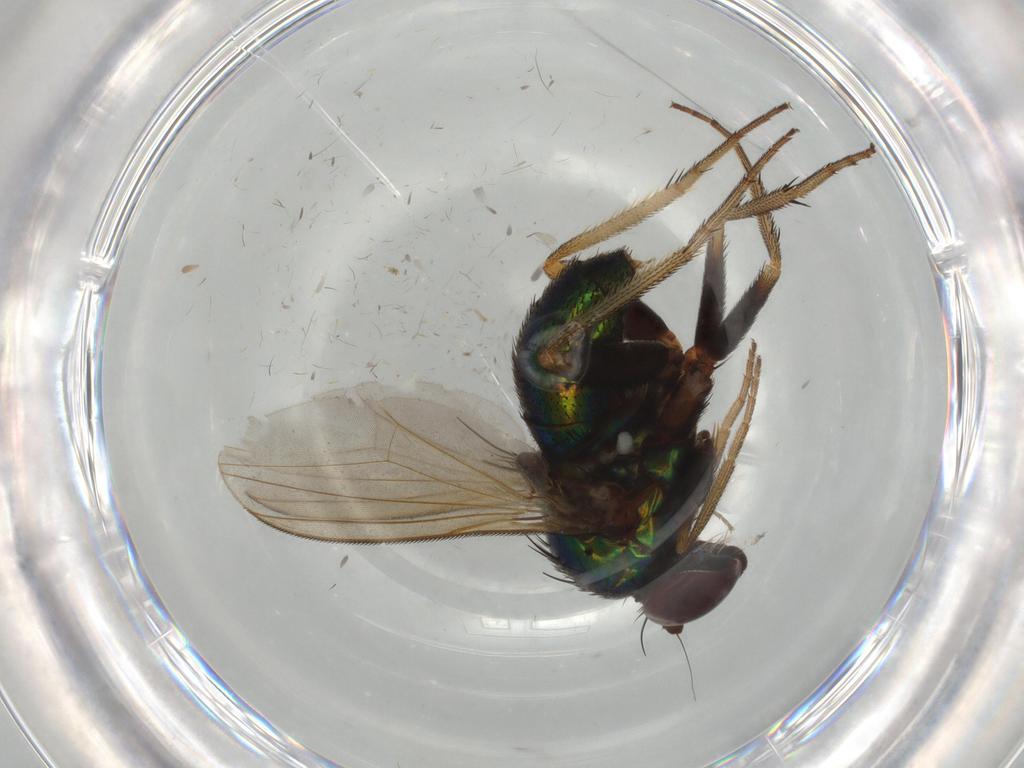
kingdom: Animalia
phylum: Arthropoda
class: Insecta
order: Diptera
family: Dolichopodidae
